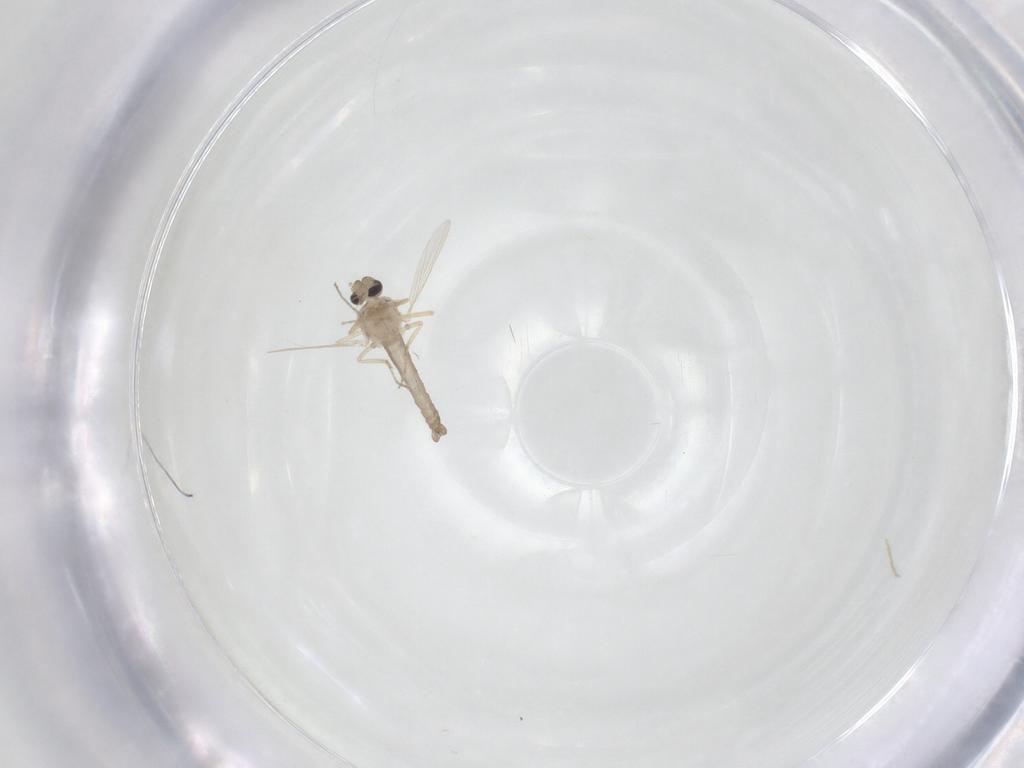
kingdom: Animalia
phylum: Arthropoda
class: Insecta
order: Diptera
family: Ceratopogonidae
